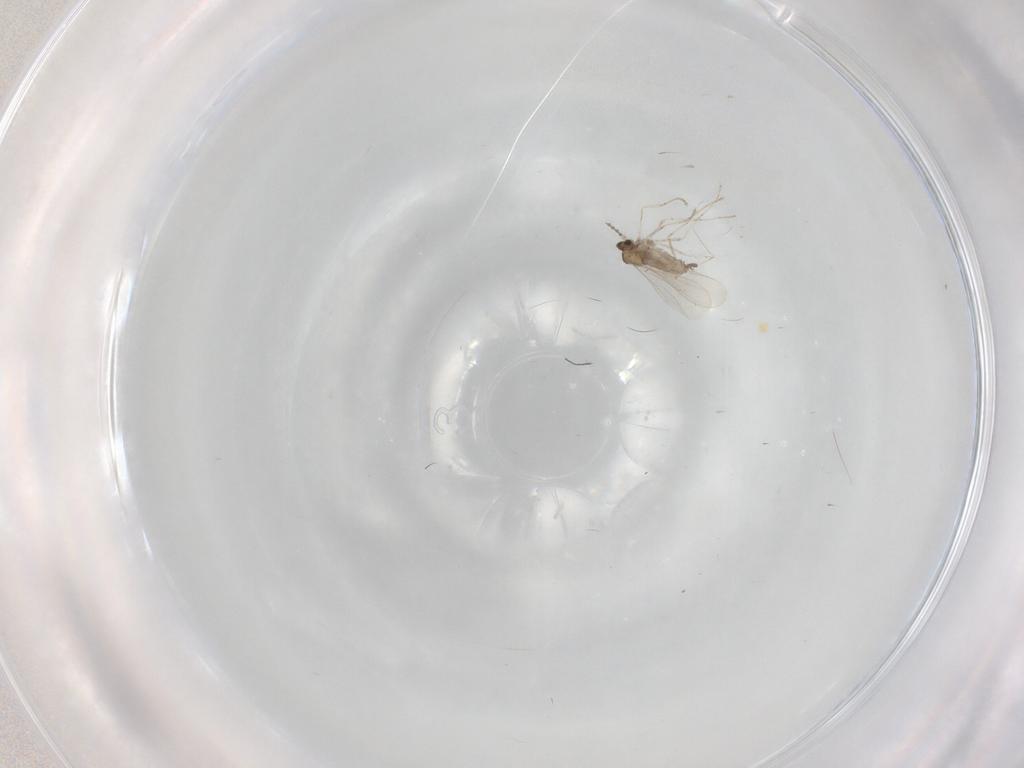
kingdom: Animalia
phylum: Arthropoda
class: Insecta
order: Diptera
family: Cecidomyiidae
